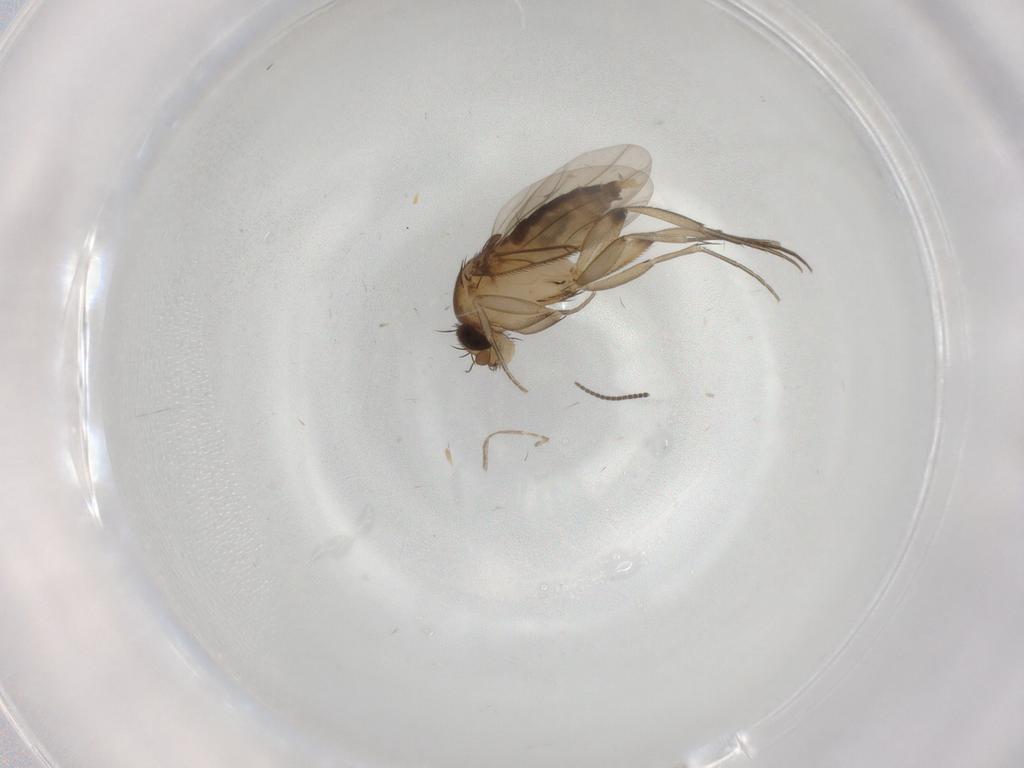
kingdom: Animalia
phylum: Arthropoda
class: Insecta
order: Diptera
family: Phoridae
